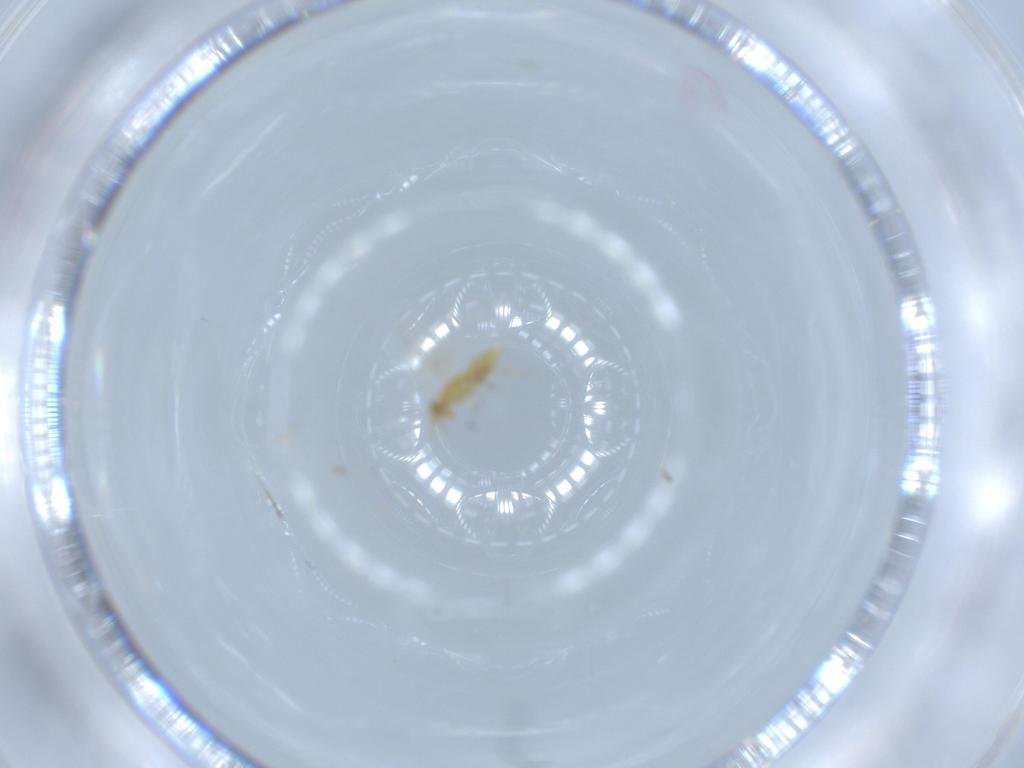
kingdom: Animalia
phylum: Arthropoda
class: Insecta
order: Hymenoptera
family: Aphelinidae
